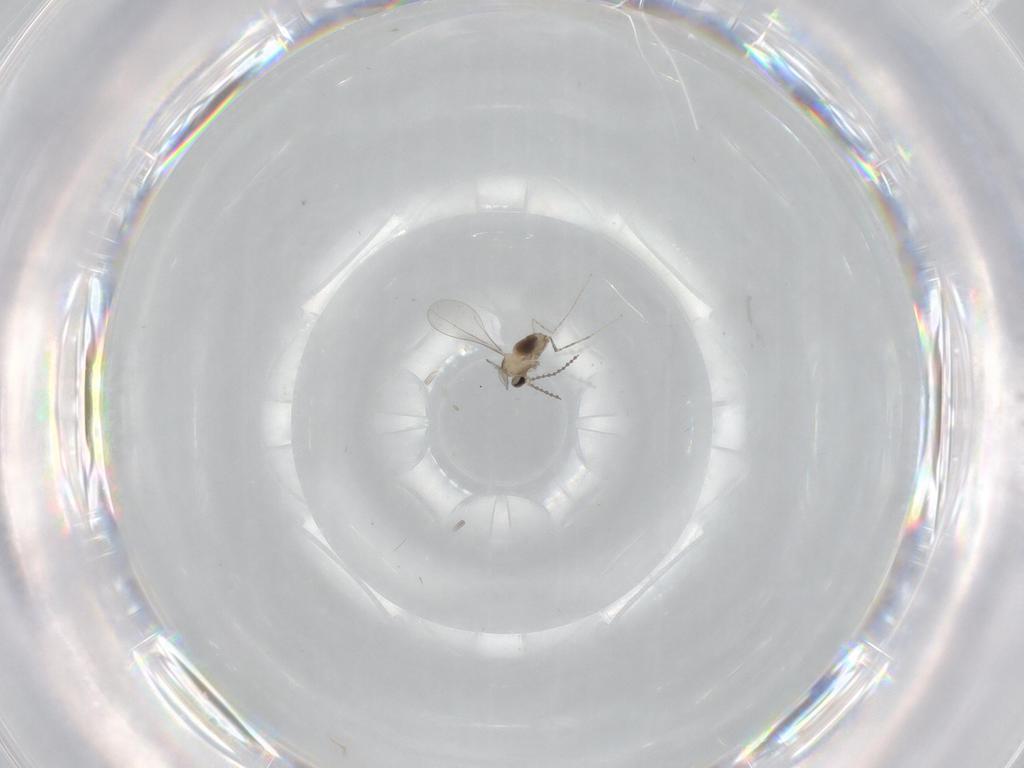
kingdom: Animalia
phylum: Arthropoda
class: Insecta
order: Diptera
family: Cecidomyiidae
